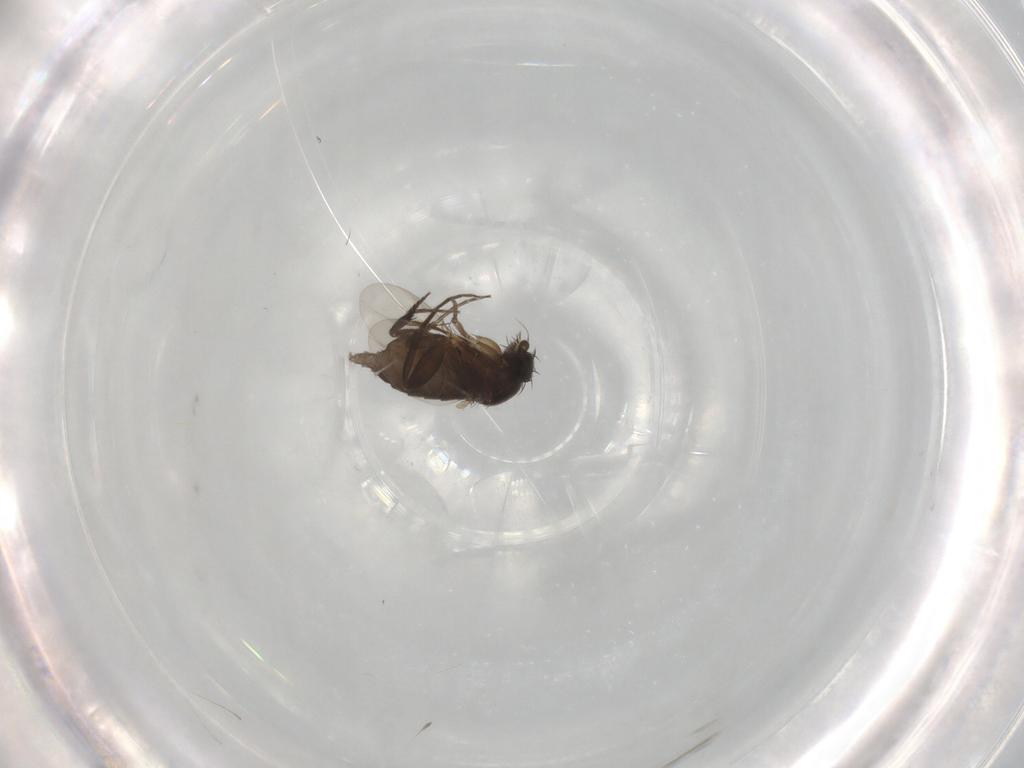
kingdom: Animalia
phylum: Arthropoda
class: Insecta
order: Diptera
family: Phoridae
